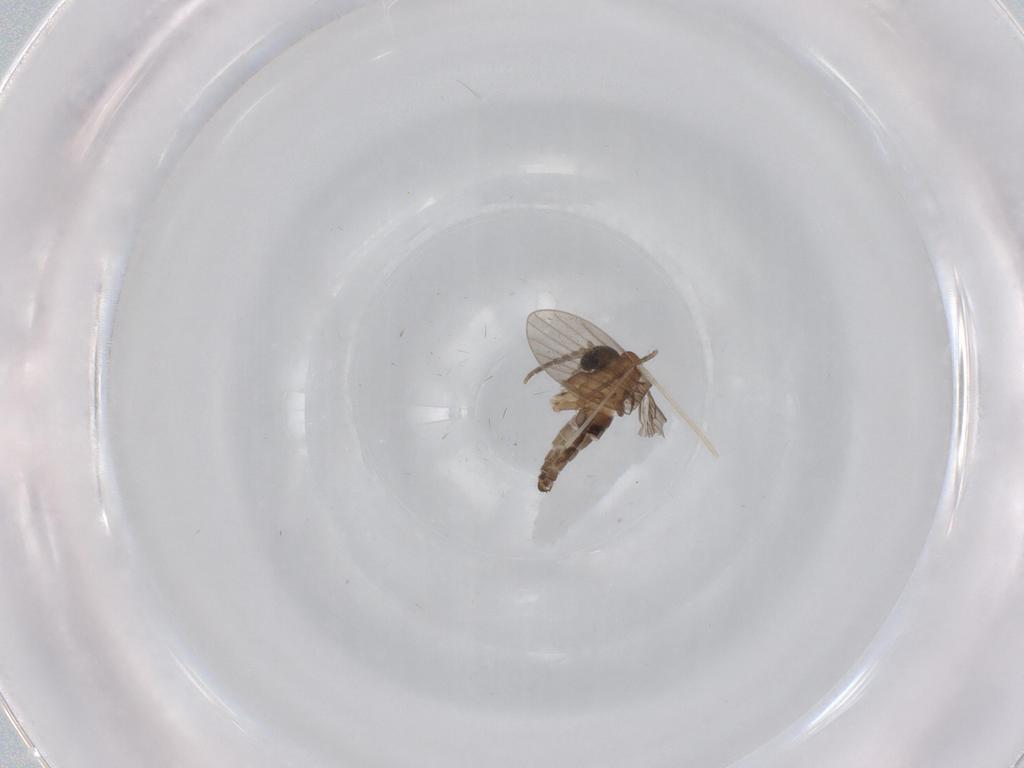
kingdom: Animalia
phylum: Arthropoda
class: Insecta
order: Diptera
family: Cecidomyiidae
